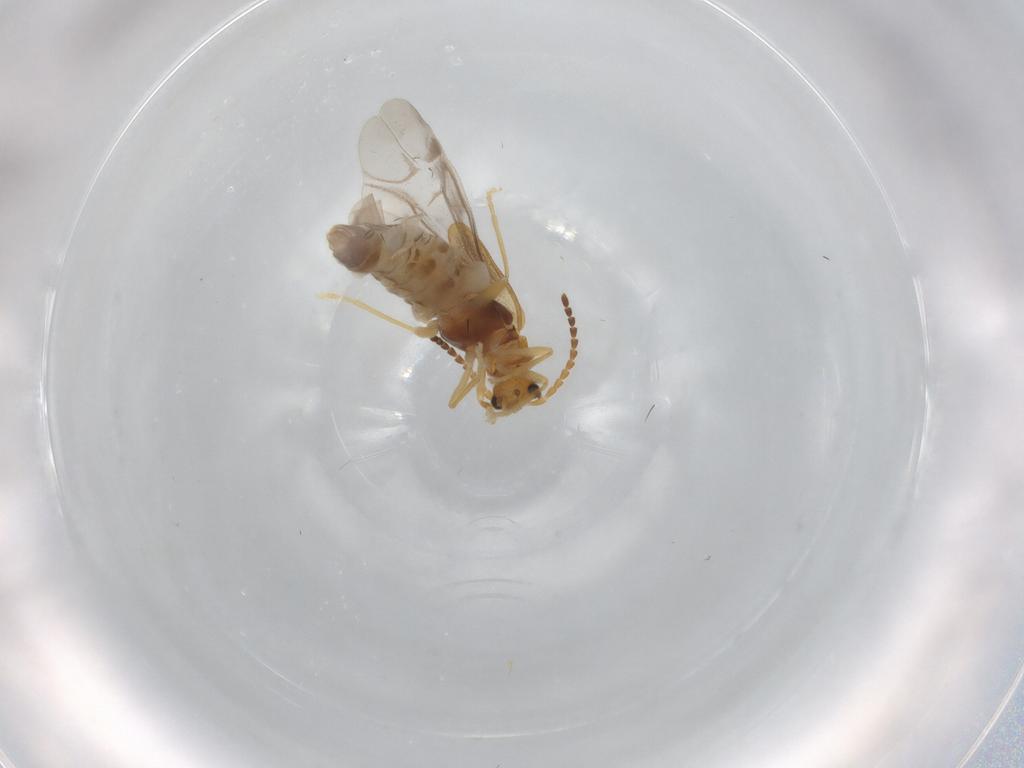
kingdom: Animalia
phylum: Arthropoda
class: Insecta
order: Coleoptera
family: Cantharidae
